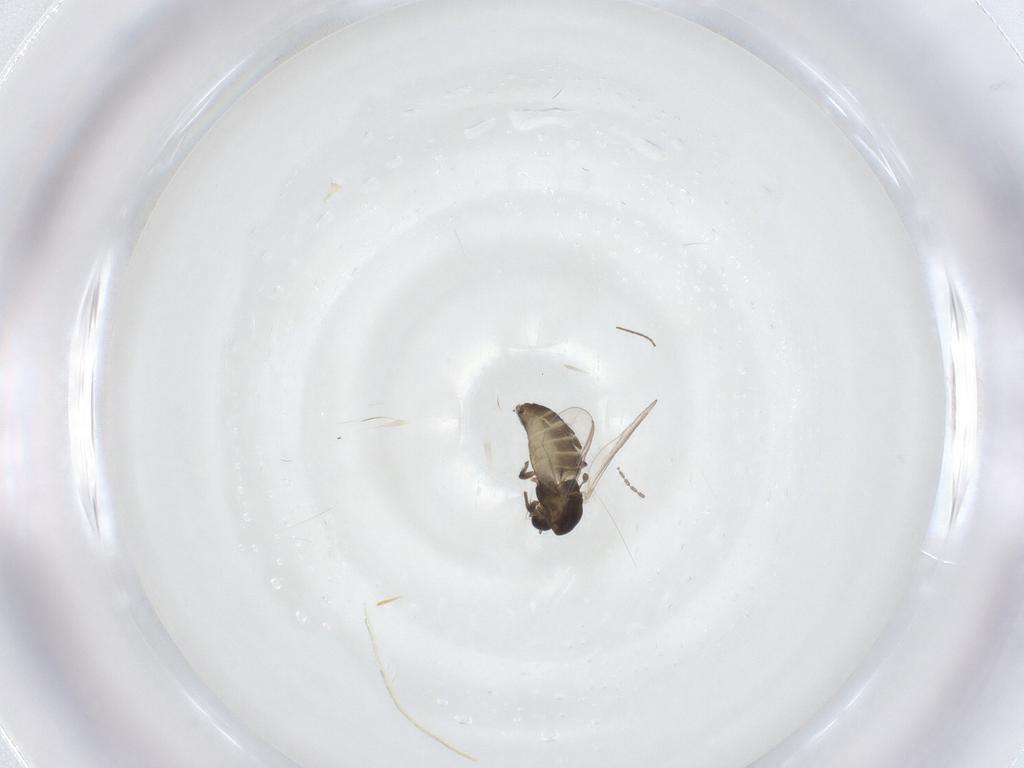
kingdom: Animalia
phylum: Arthropoda
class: Insecta
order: Diptera
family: Chironomidae
